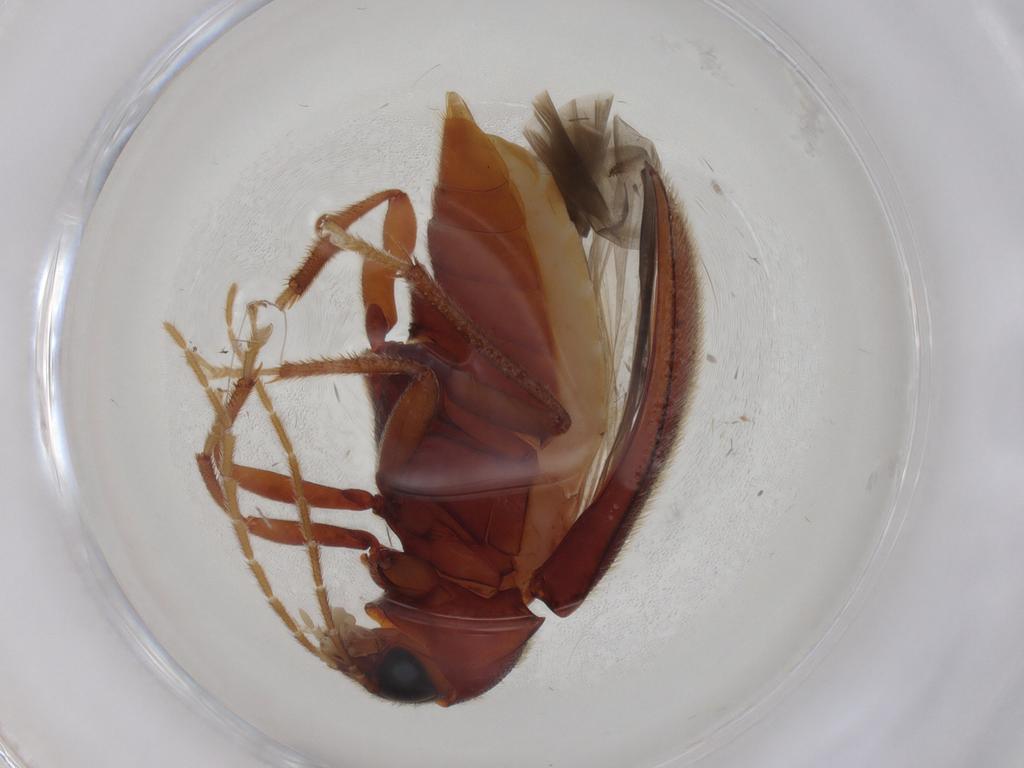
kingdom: Animalia
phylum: Arthropoda
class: Insecta
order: Coleoptera
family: Ptilodactylidae
